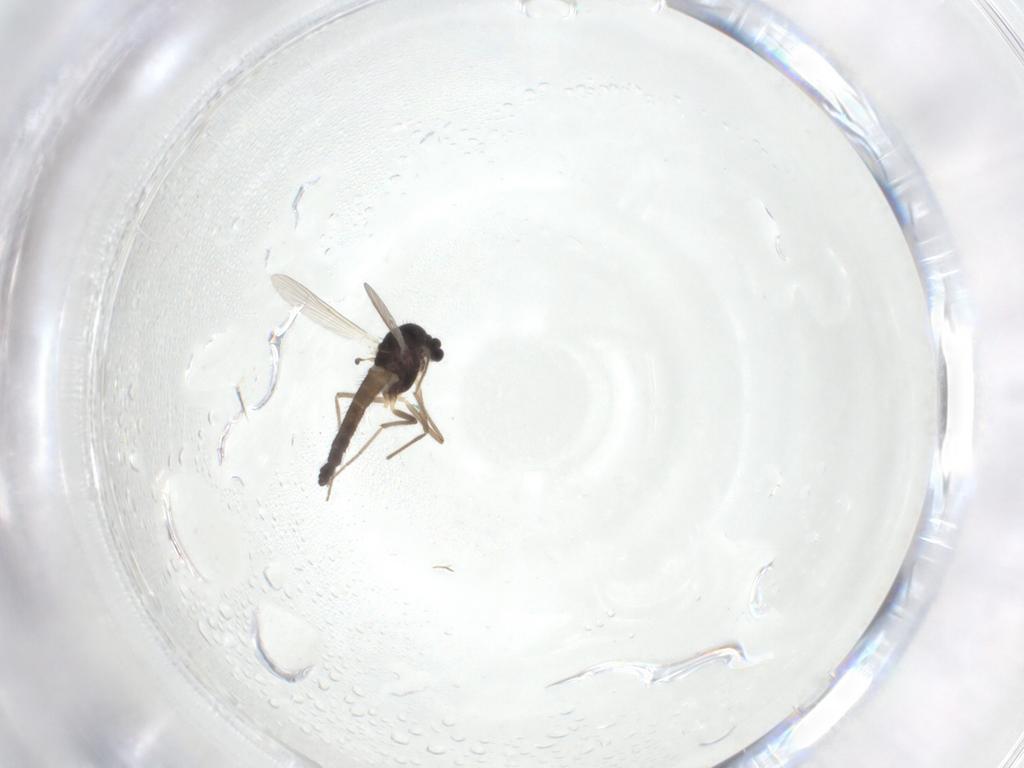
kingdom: Animalia
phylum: Arthropoda
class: Insecta
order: Diptera
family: Chironomidae
